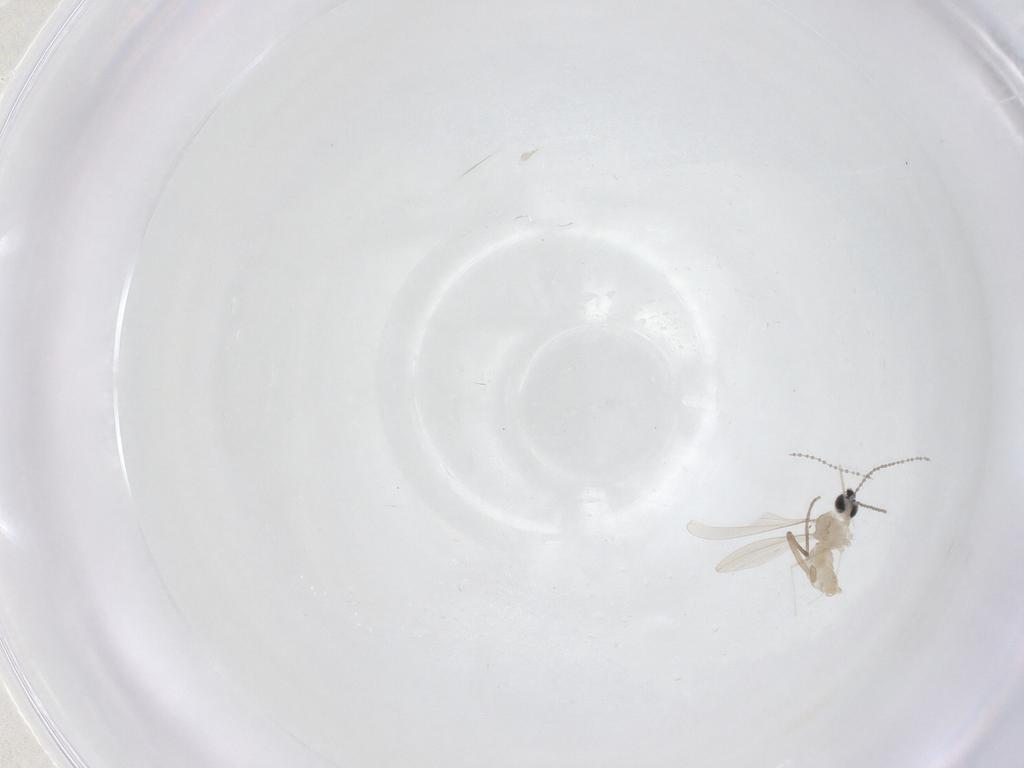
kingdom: Animalia
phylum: Arthropoda
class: Insecta
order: Diptera
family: Cecidomyiidae
